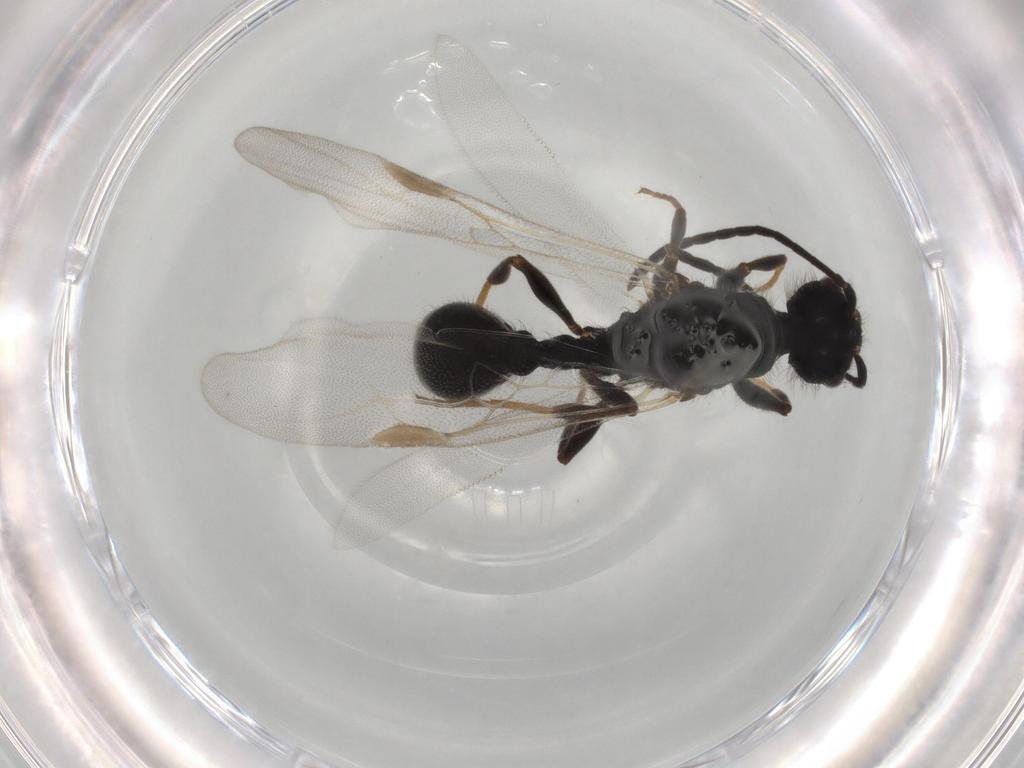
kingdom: Animalia
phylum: Arthropoda
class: Insecta
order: Hymenoptera
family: Formicidae
